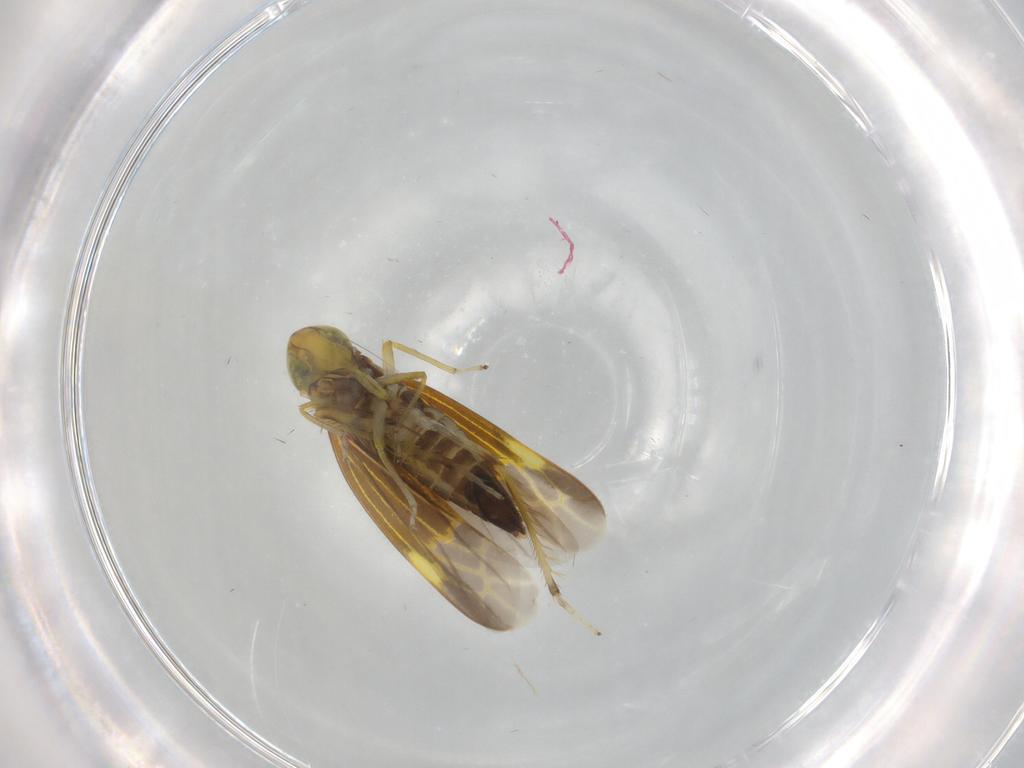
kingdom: Animalia
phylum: Arthropoda
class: Insecta
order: Hemiptera
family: Cicadellidae
